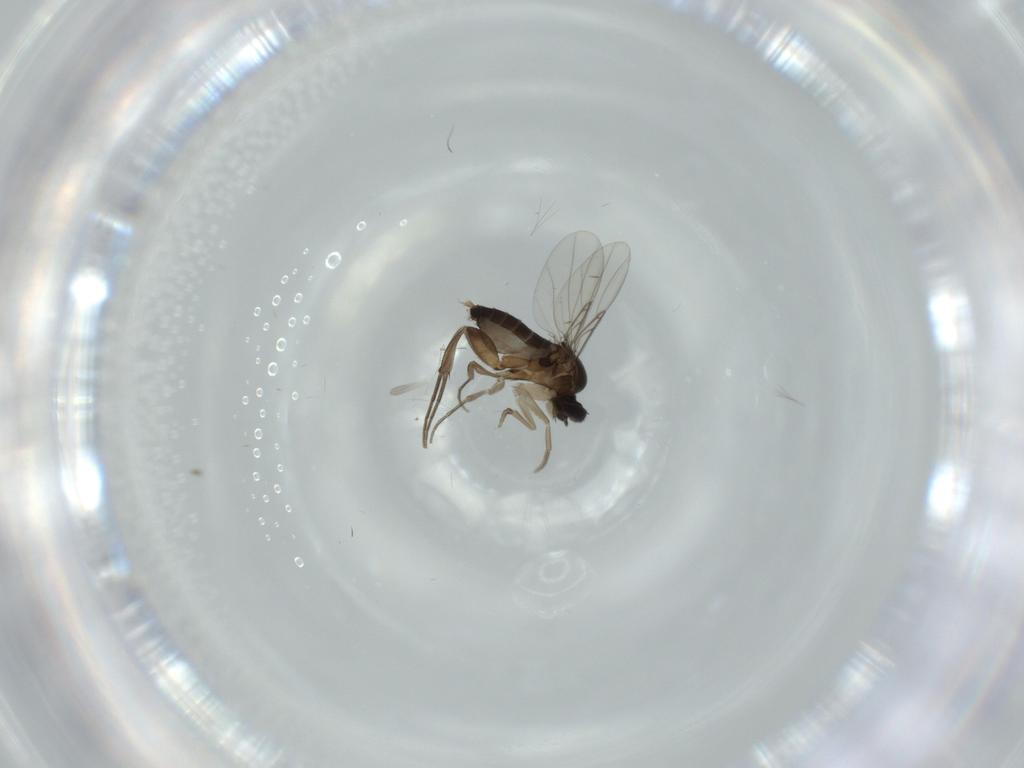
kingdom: Animalia
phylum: Arthropoda
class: Insecta
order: Diptera
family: Phoridae
